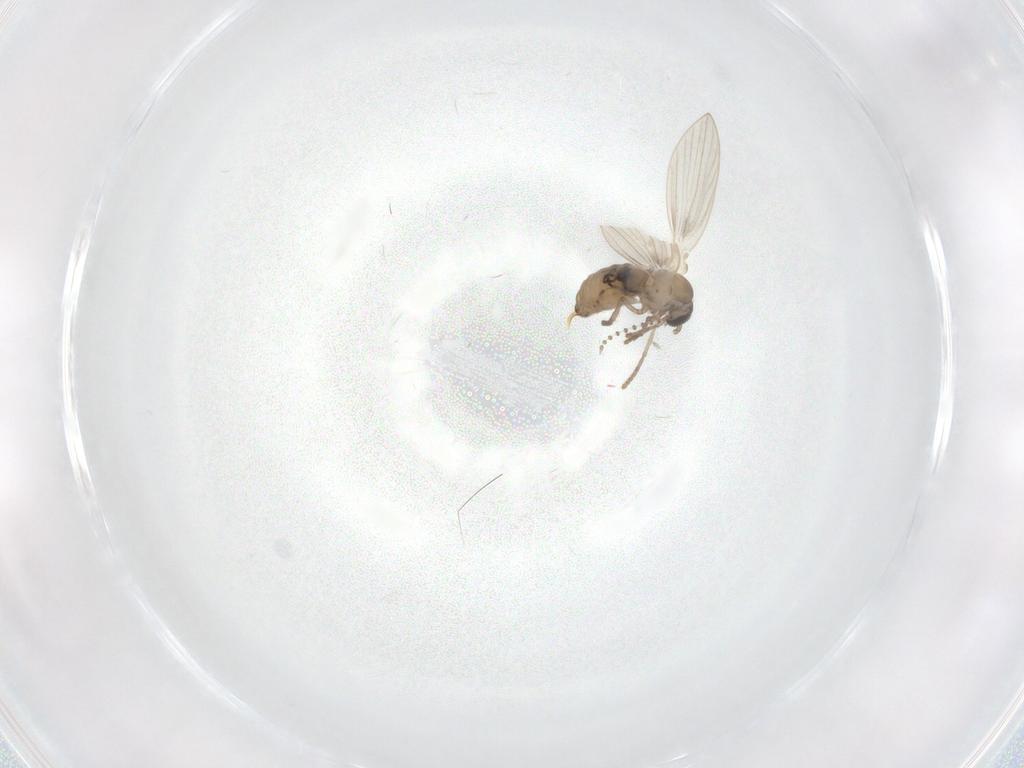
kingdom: Animalia
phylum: Arthropoda
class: Insecta
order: Diptera
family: Psychodidae
